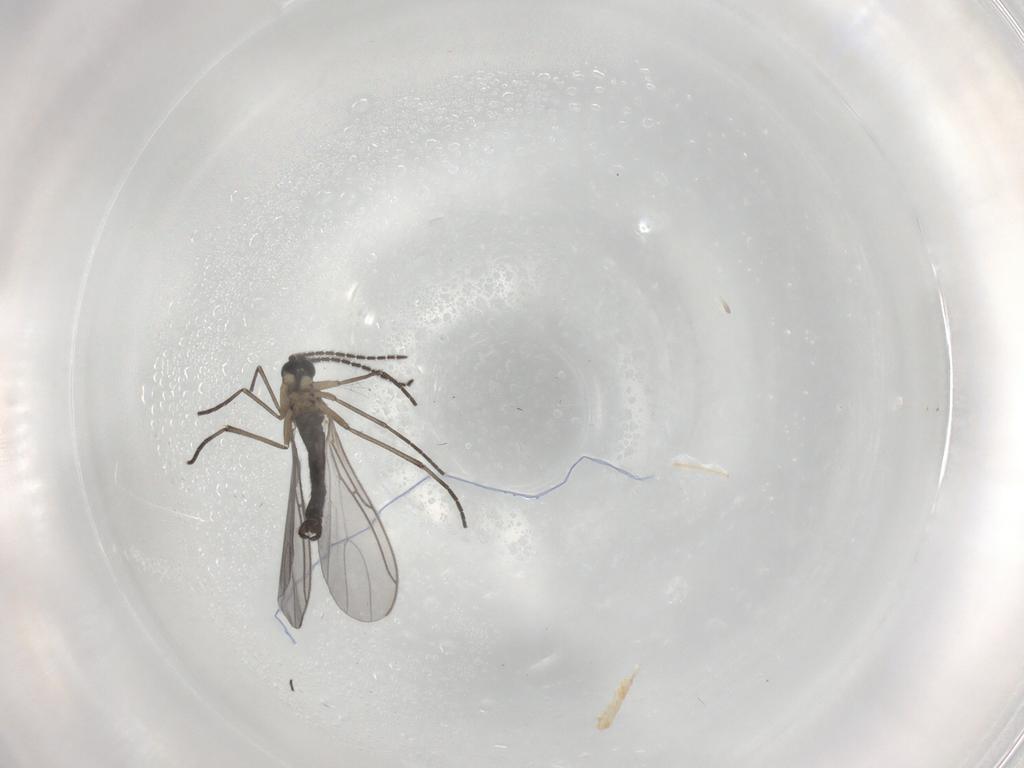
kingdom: Animalia
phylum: Arthropoda
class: Insecta
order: Diptera
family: Sciaridae
